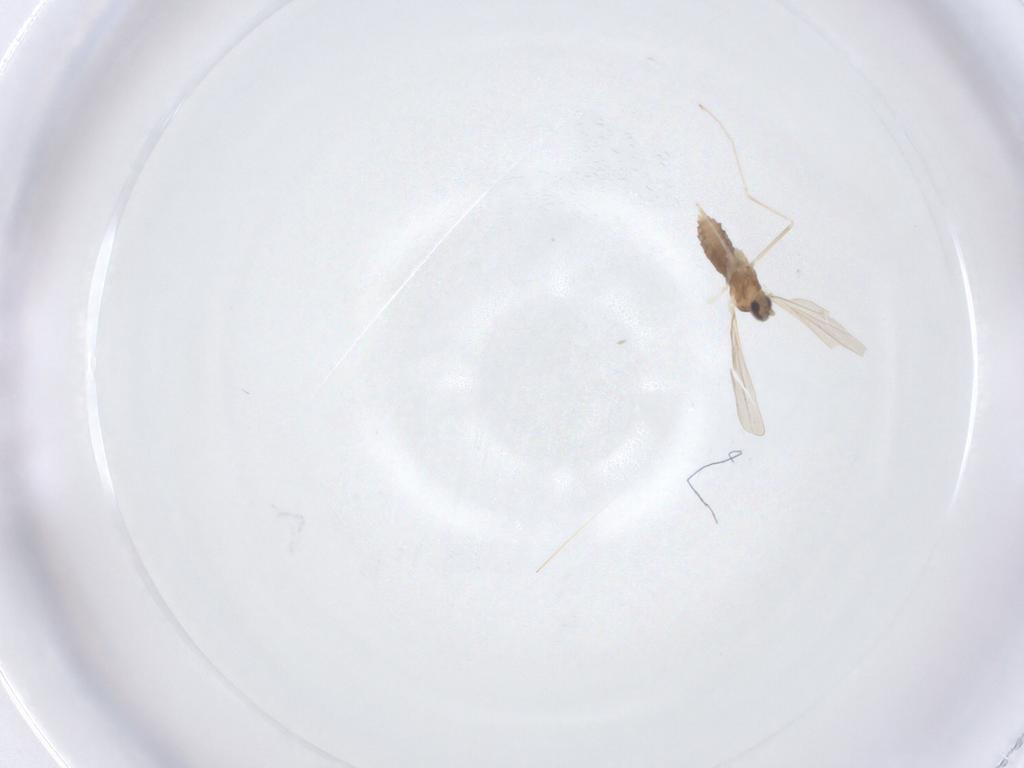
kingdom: Animalia
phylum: Arthropoda
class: Insecta
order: Diptera
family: Cecidomyiidae
